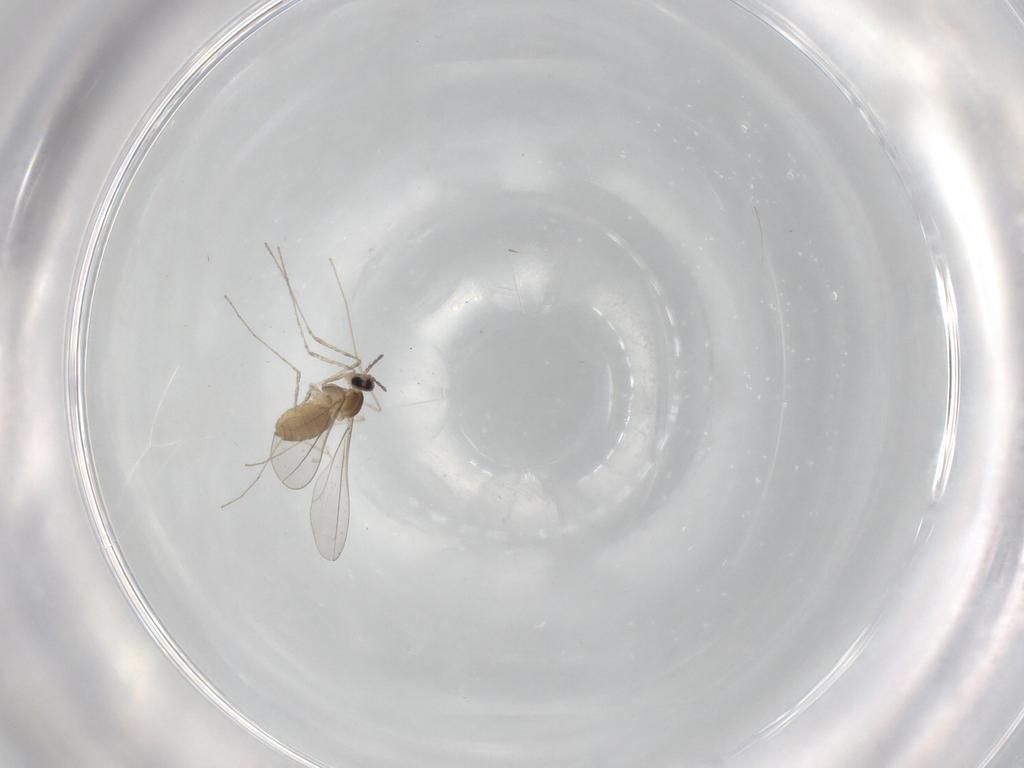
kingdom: Animalia
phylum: Arthropoda
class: Insecta
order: Diptera
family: Cecidomyiidae
